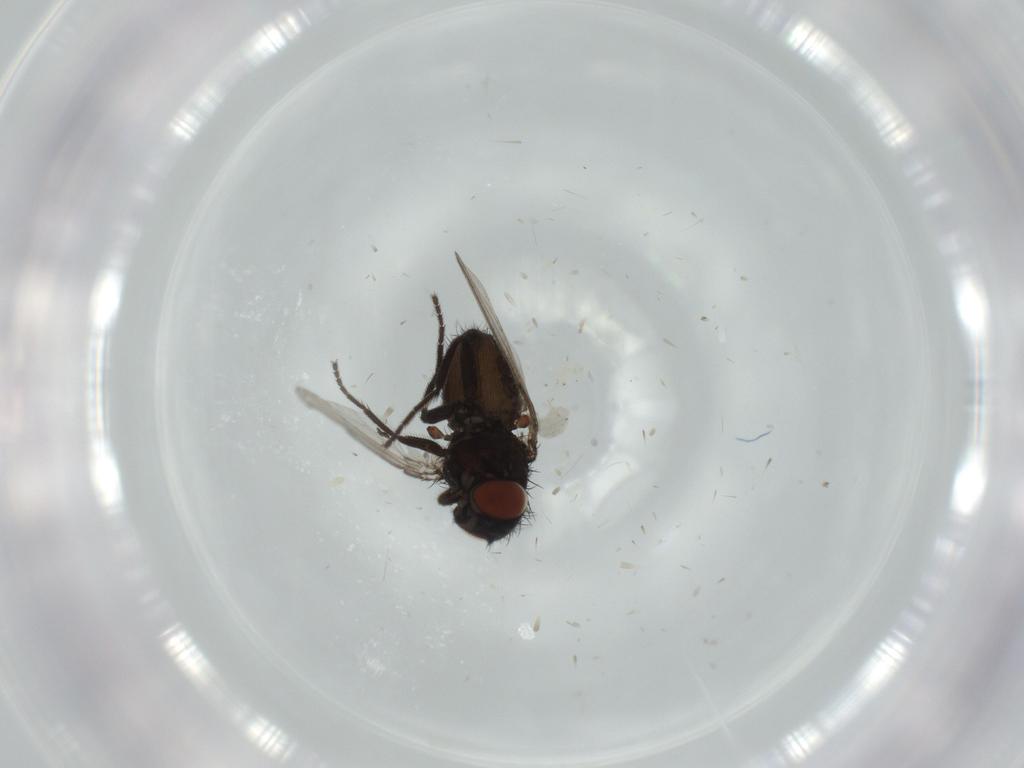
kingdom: Animalia
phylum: Arthropoda
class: Insecta
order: Diptera
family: Milichiidae
